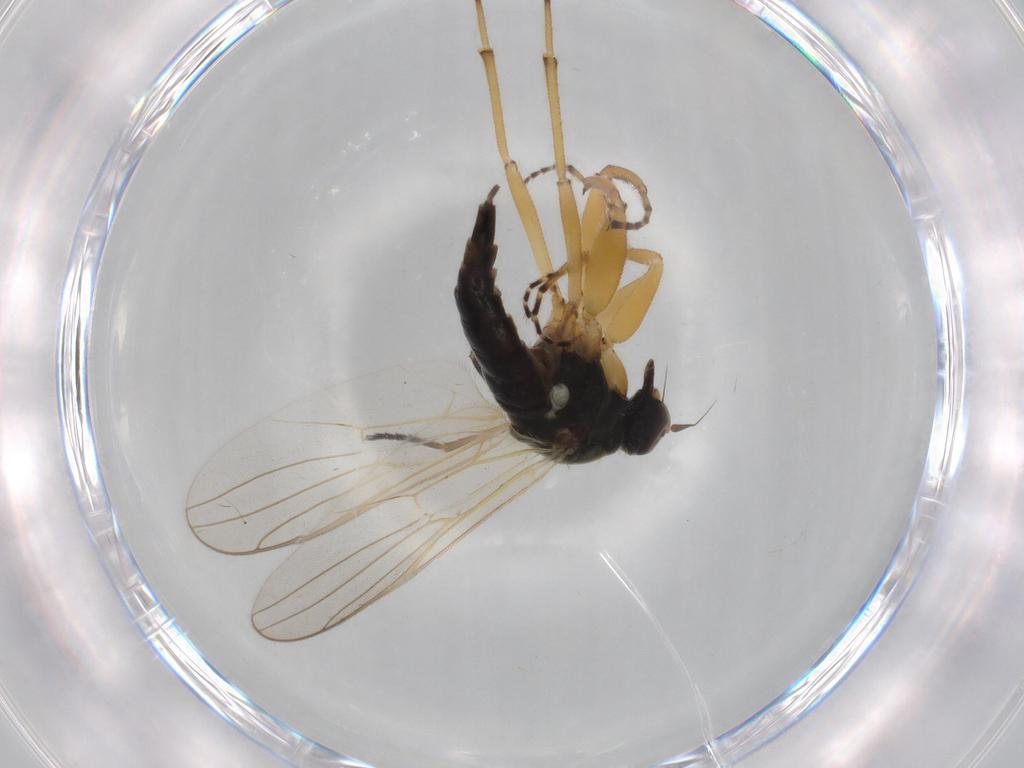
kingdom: Animalia
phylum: Arthropoda
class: Insecta
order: Diptera
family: Hybotidae
